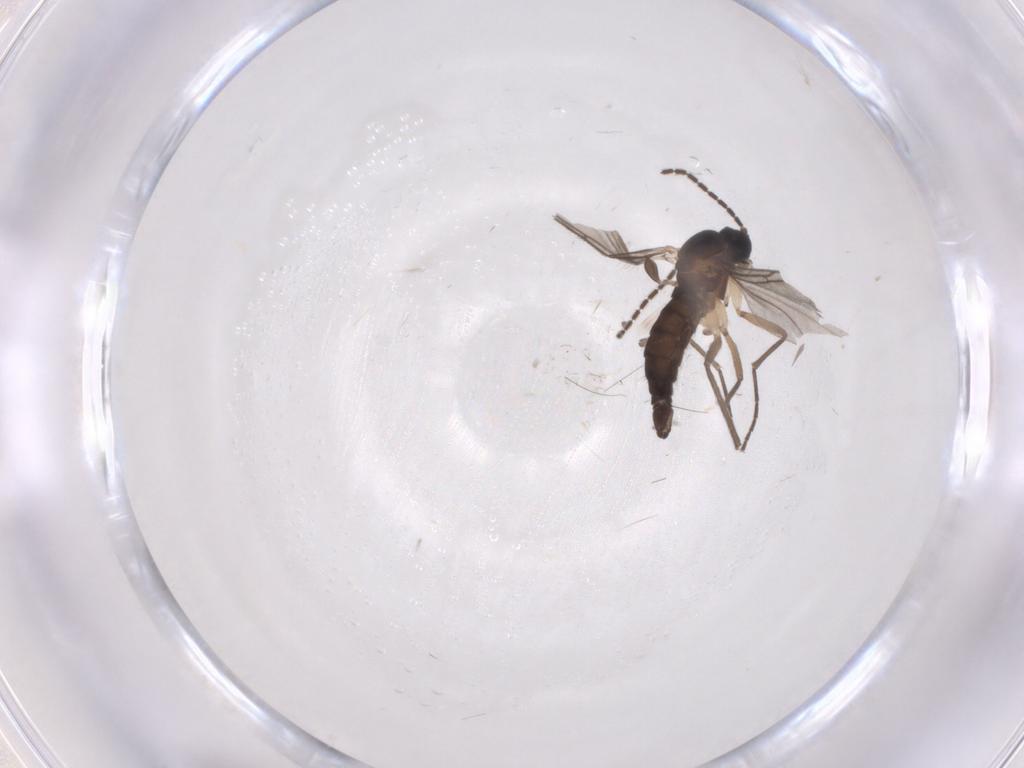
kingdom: Animalia
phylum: Arthropoda
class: Insecta
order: Diptera
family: Sciaridae
